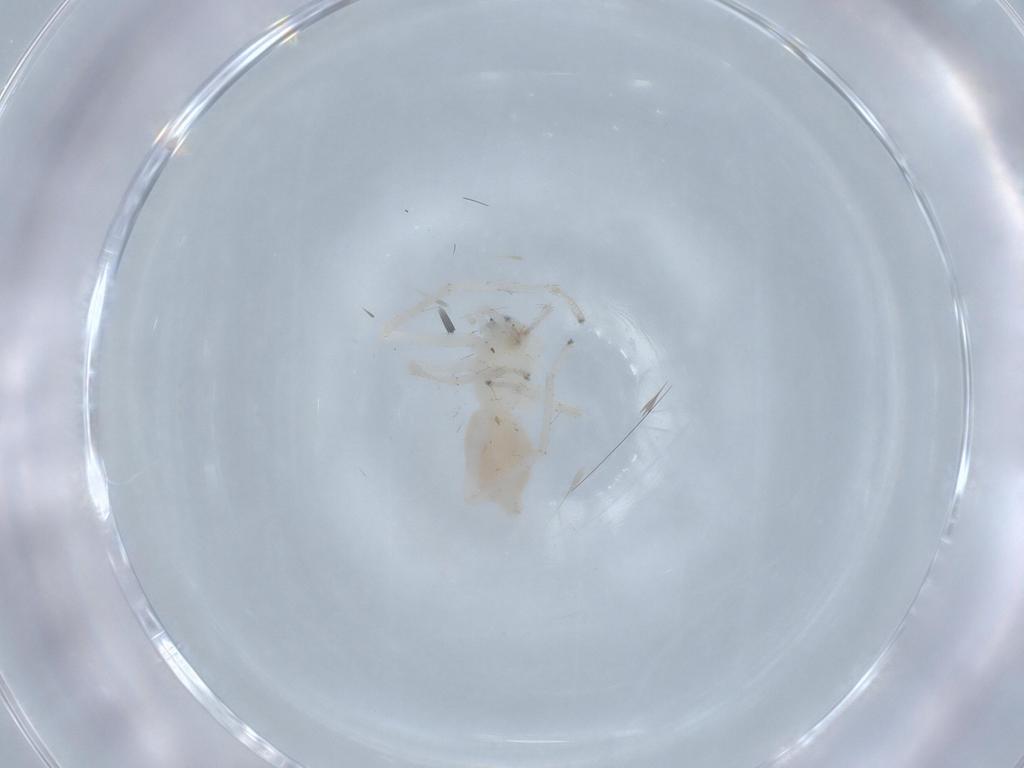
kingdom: Animalia
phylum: Arthropoda
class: Arachnida
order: Araneae
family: Anyphaenidae
